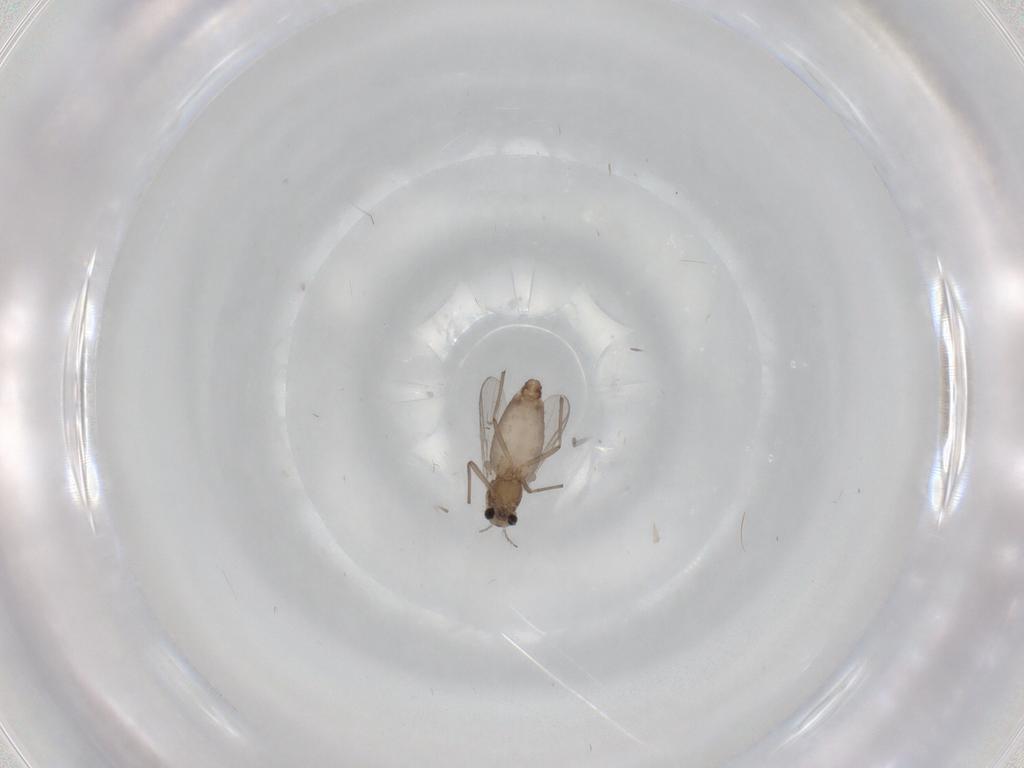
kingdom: Animalia
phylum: Arthropoda
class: Insecta
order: Diptera
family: Chironomidae
